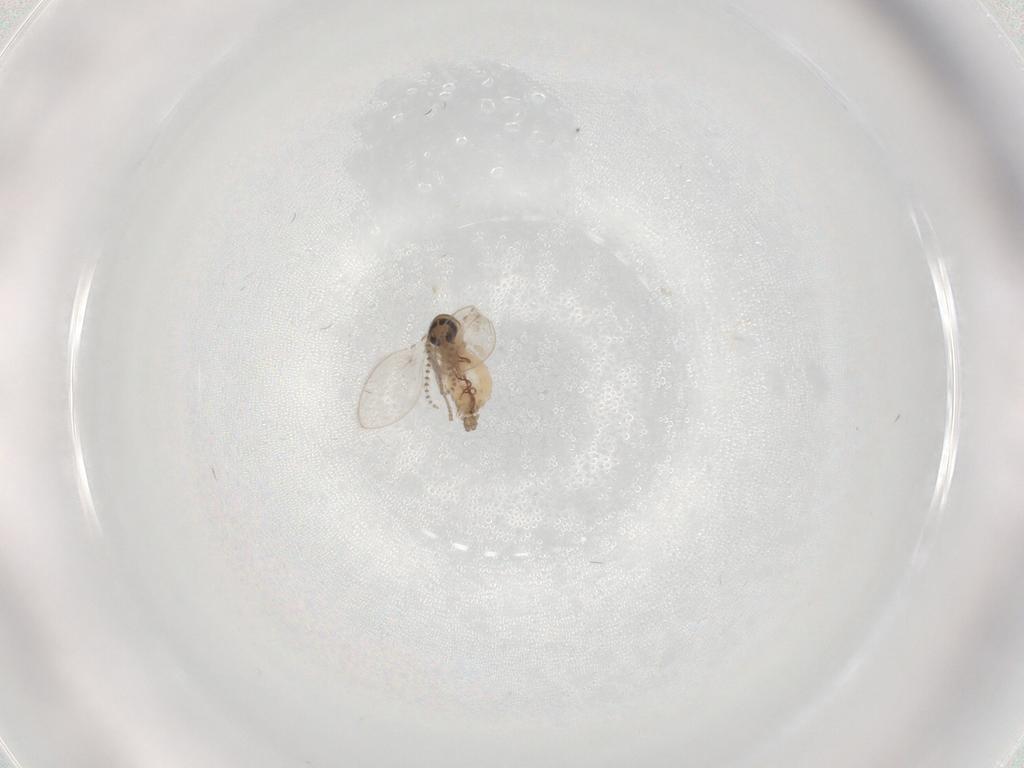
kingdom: Animalia
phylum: Arthropoda
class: Insecta
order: Diptera
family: Psychodidae
